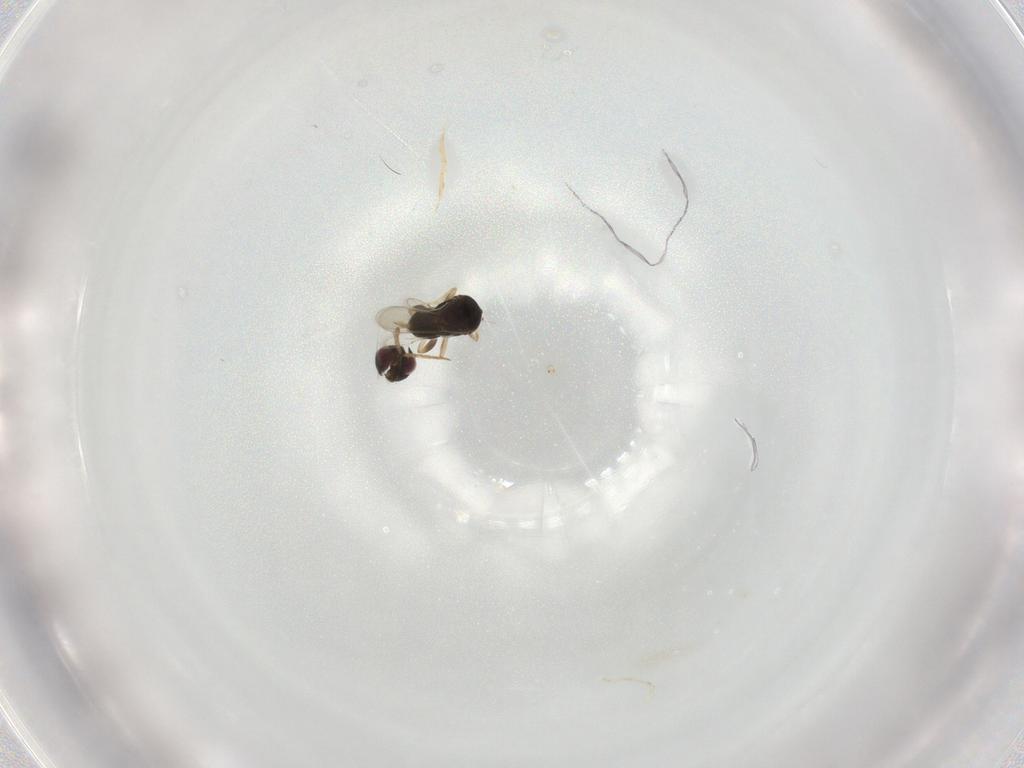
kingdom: Animalia
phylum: Arthropoda
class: Insecta
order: Hymenoptera
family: Aphelinidae
